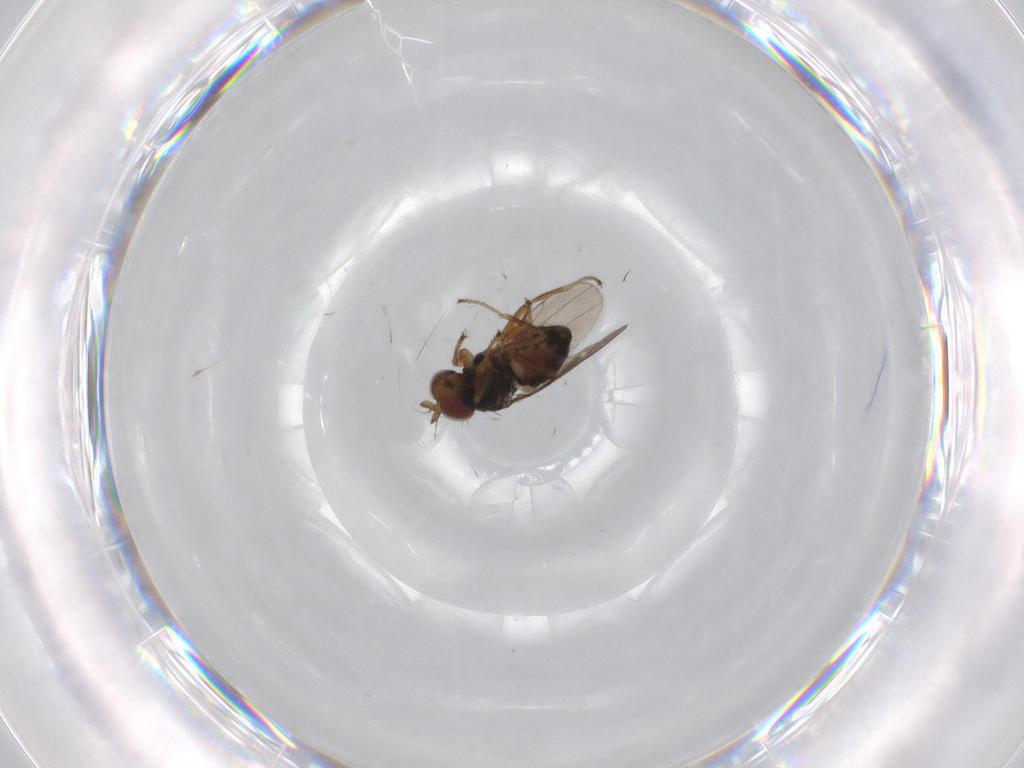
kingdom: Animalia
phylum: Arthropoda
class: Insecta
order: Diptera
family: Ephydridae
